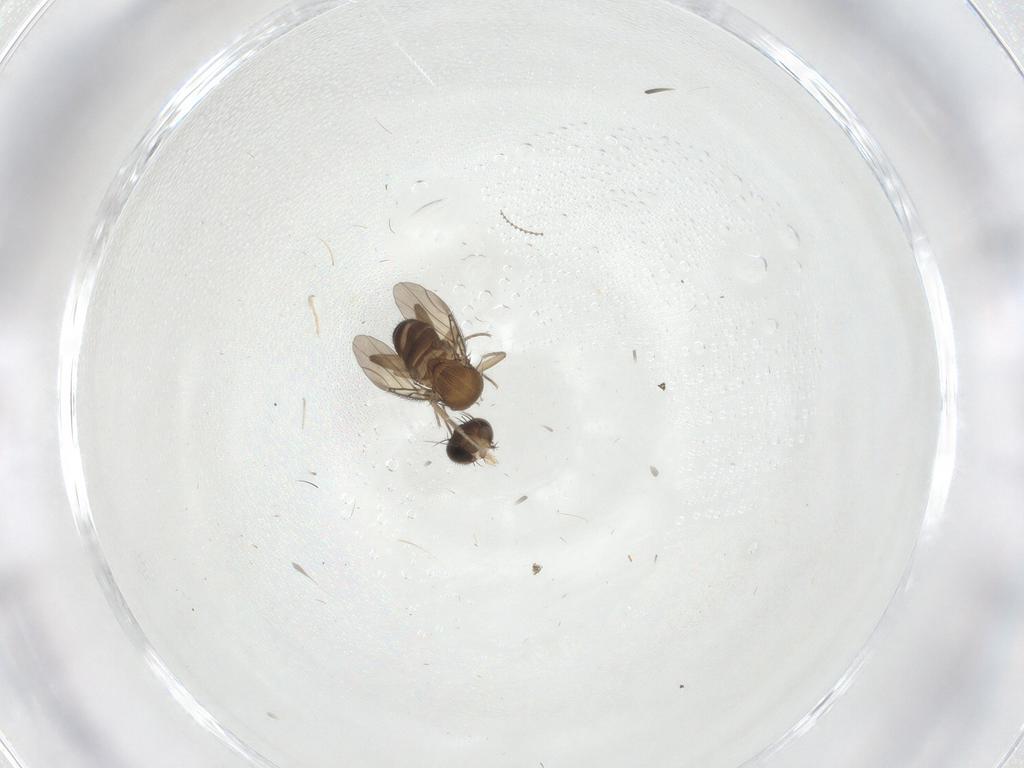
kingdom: Animalia
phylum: Arthropoda
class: Insecta
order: Diptera
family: Phoridae
